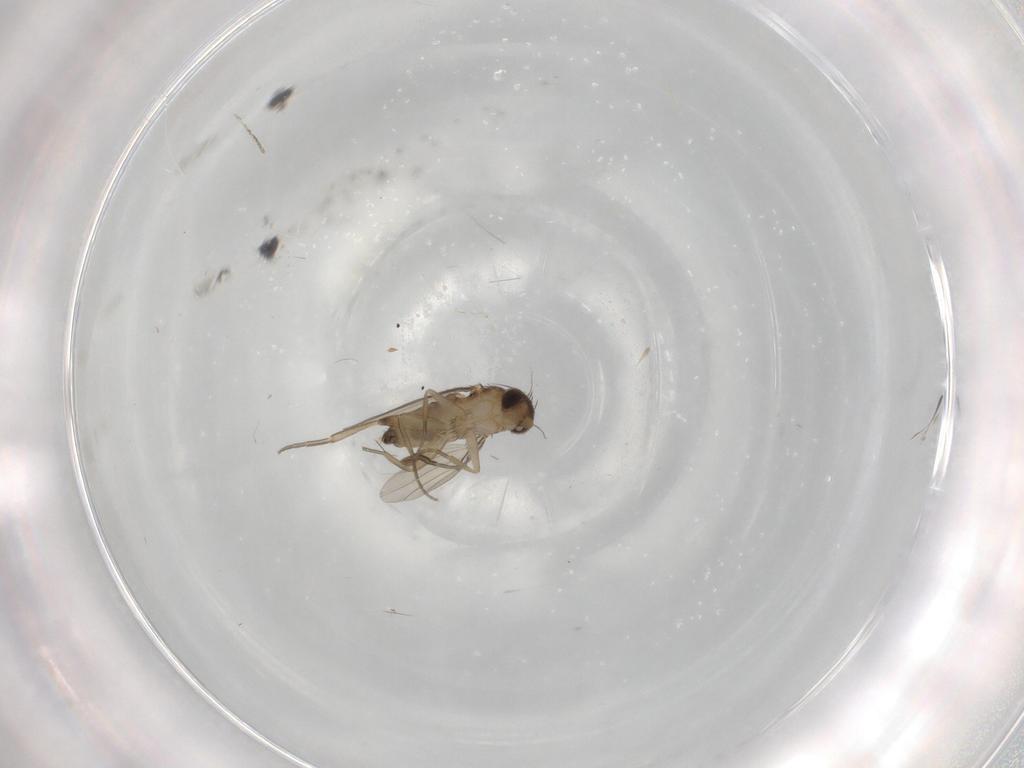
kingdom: Animalia
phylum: Arthropoda
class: Insecta
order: Diptera
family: Phoridae
